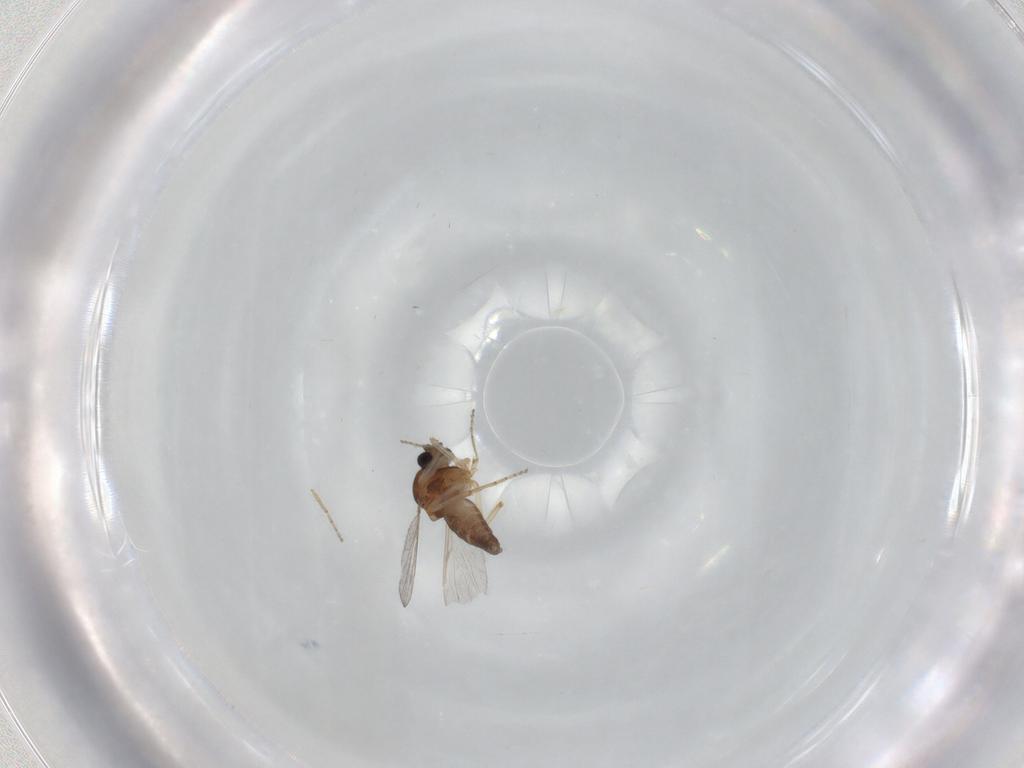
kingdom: Animalia
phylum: Arthropoda
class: Insecta
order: Diptera
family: Ceratopogonidae
